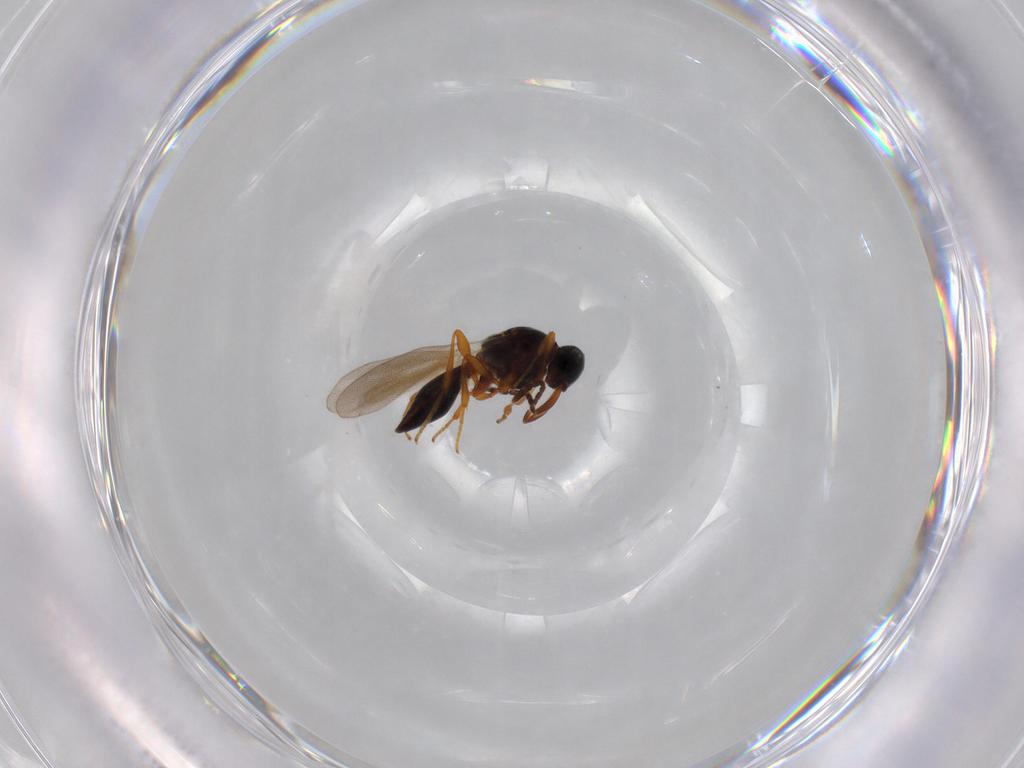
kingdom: Animalia
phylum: Arthropoda
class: Insecta
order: Hymenoptera
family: Platygastridae
